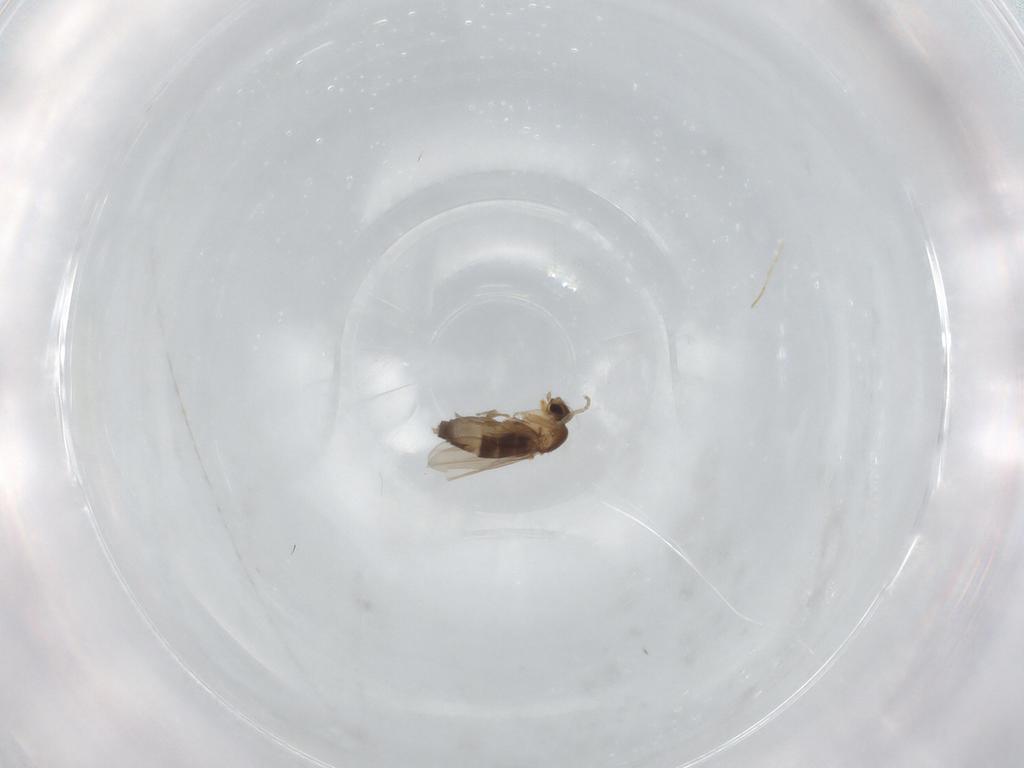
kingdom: Animalia
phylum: Arthropoda
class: Insecta
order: Diptera
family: Phoridae
